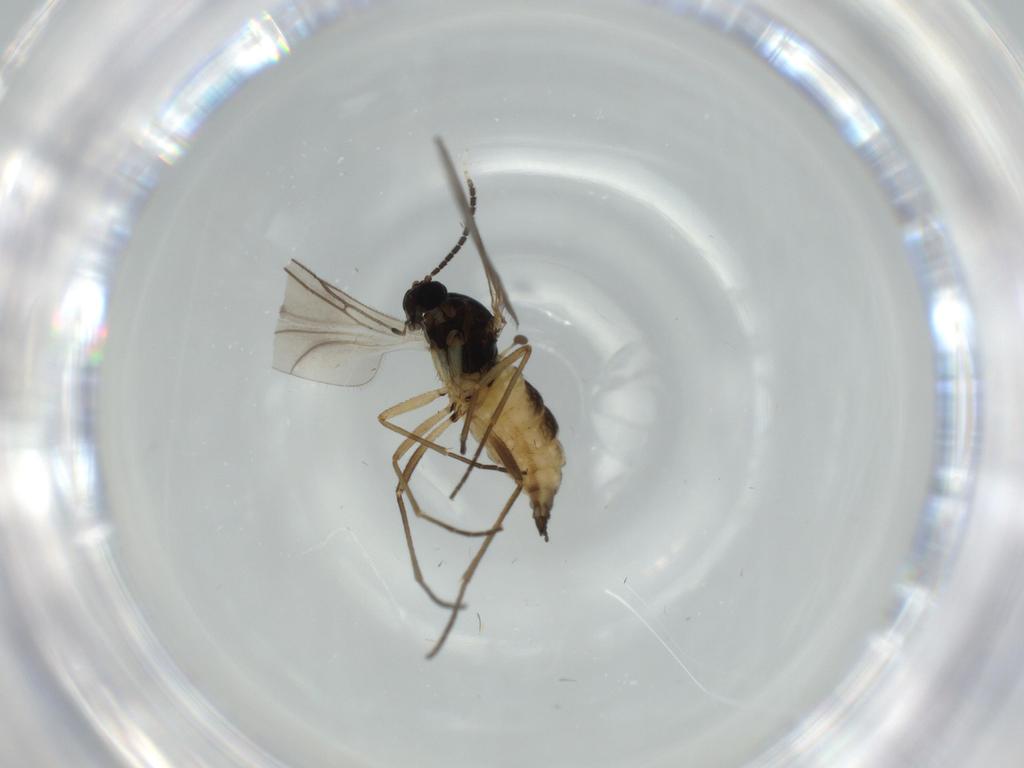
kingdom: Animalia
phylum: Arthropoda
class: Insecta
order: Diptera
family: Sciaridae
